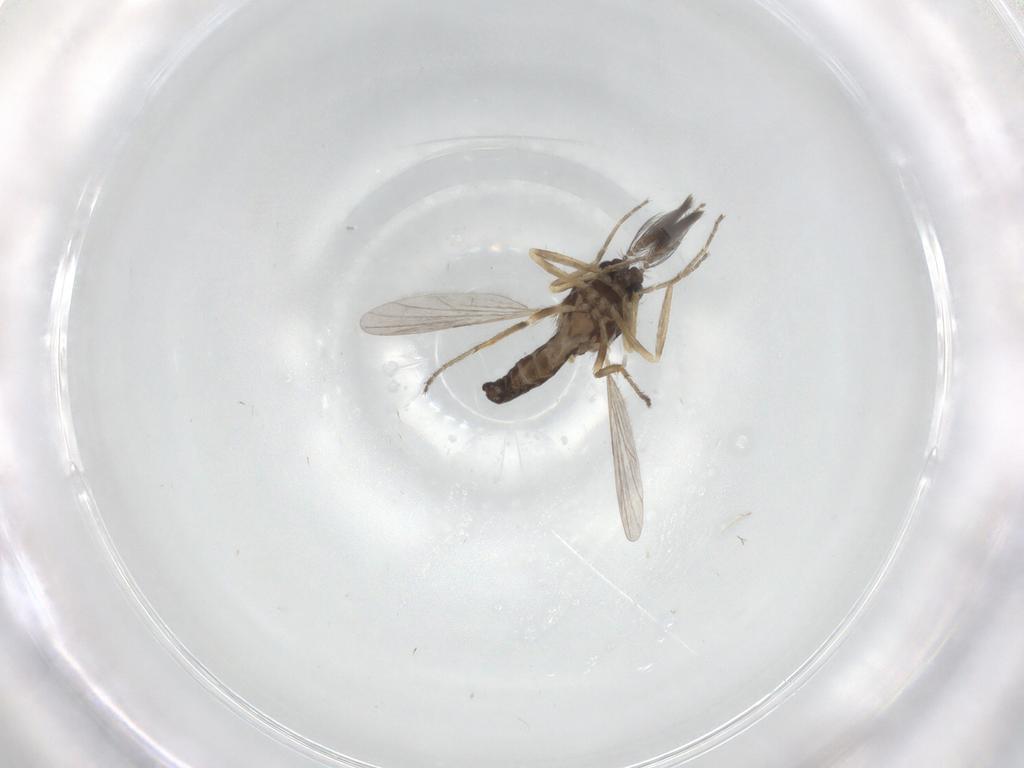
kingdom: Animalia
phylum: Arthropoda
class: Insecta
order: Diptera
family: Ceratopogonidae
